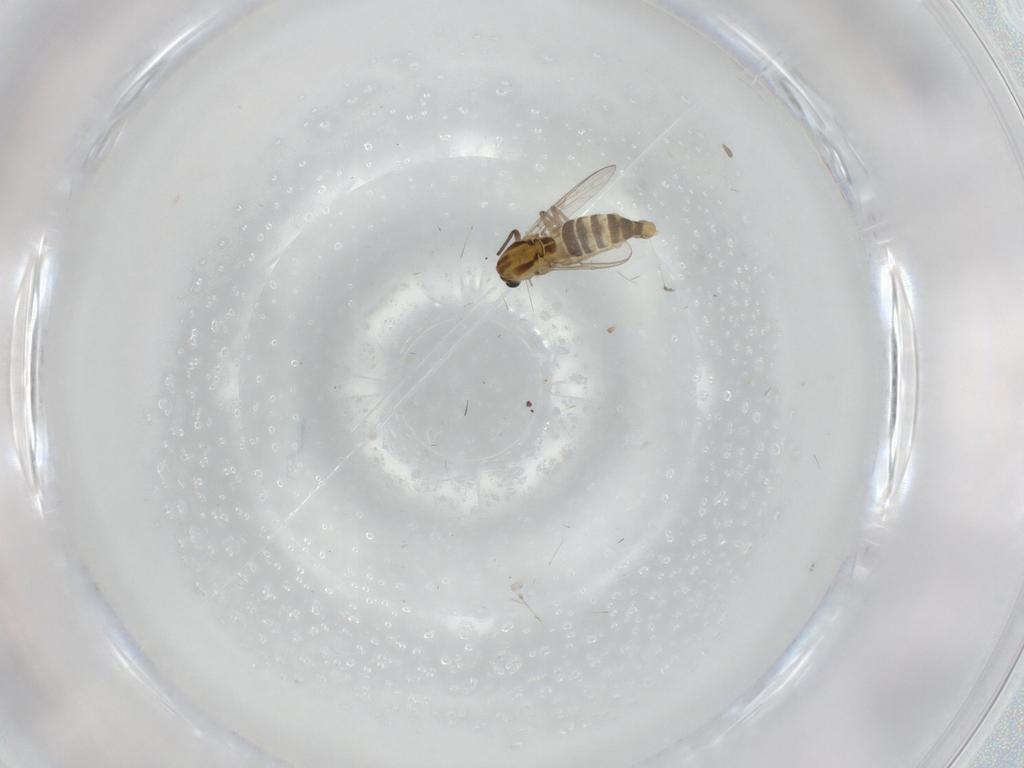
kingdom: Animalia
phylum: Arthropoda
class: Insecta
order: Diptera
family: Chironomidae
